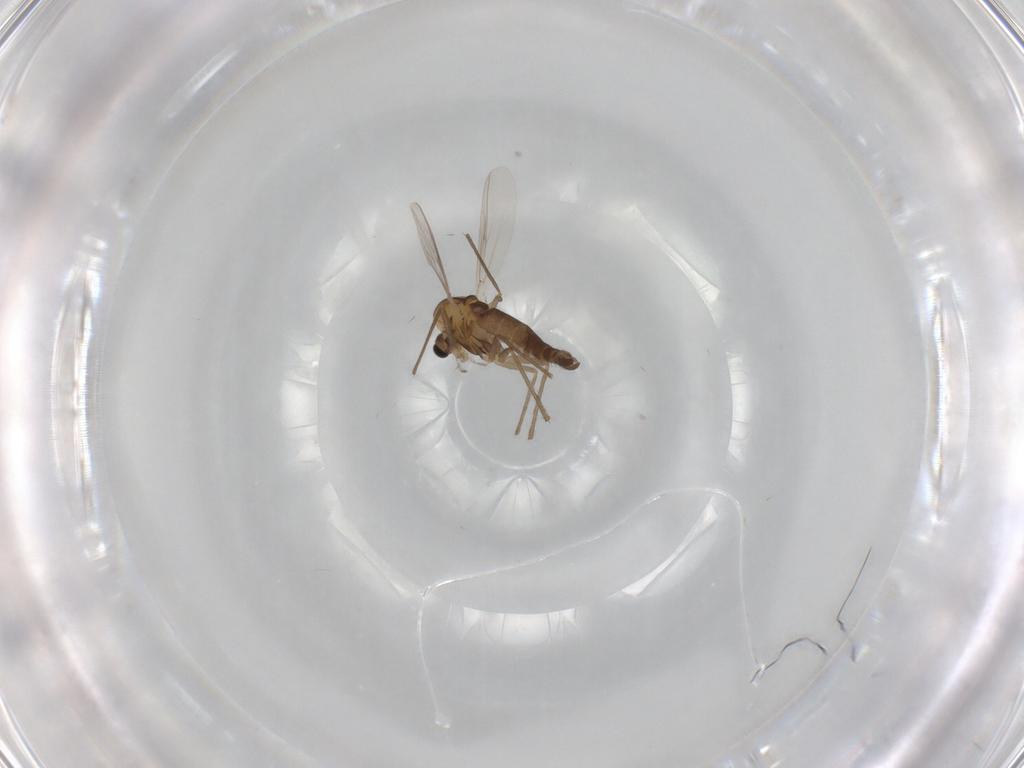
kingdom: Animalia
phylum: Arthropoda
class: Insecta
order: Diptera
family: Chironomidae
